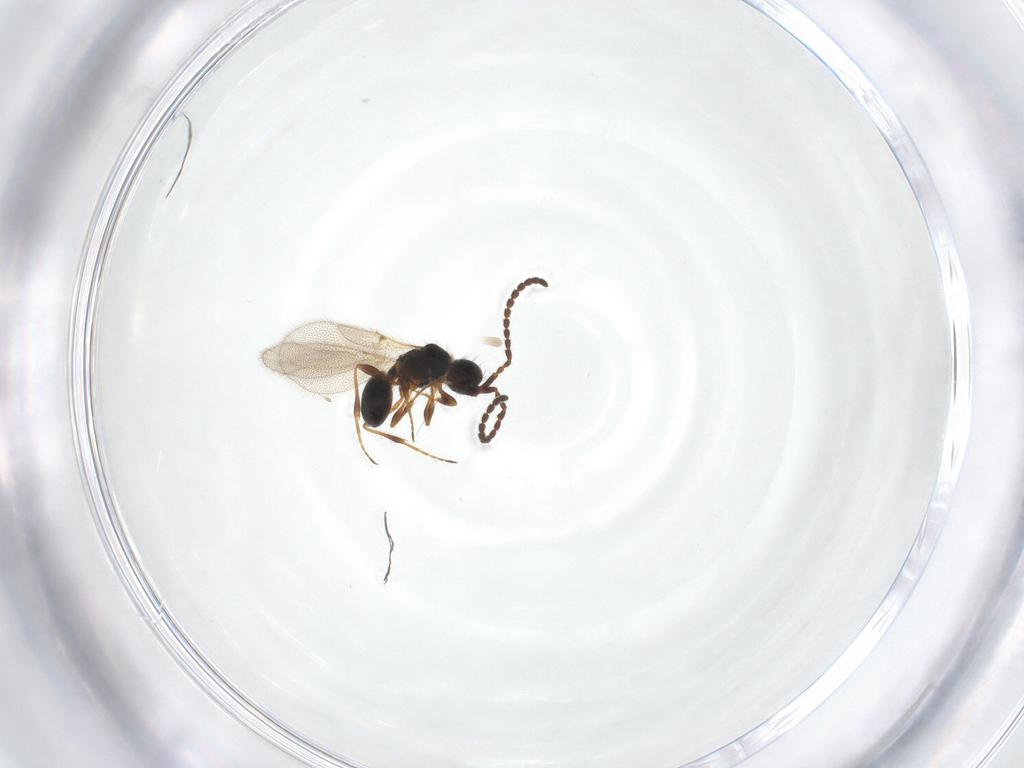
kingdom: Animalia
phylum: Arthropoda
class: Insecta
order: Hymenoptera
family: Diapriidae
